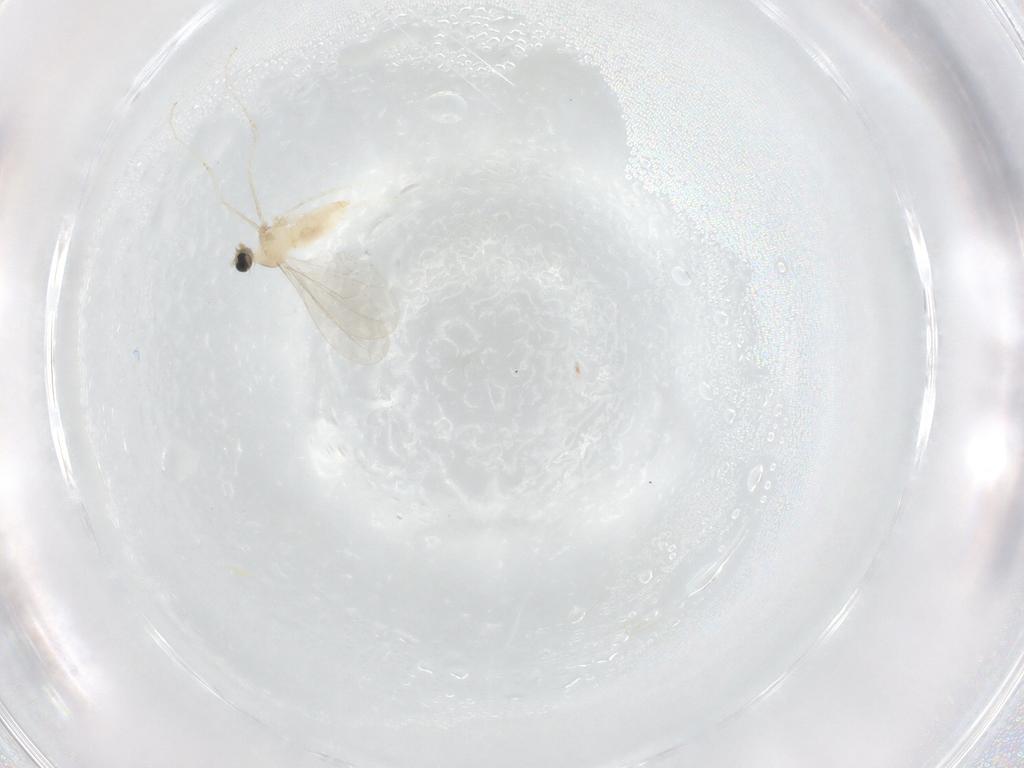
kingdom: Animalia
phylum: Arthropoda
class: Insecta
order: Diptera
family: Cecidomyiidae
